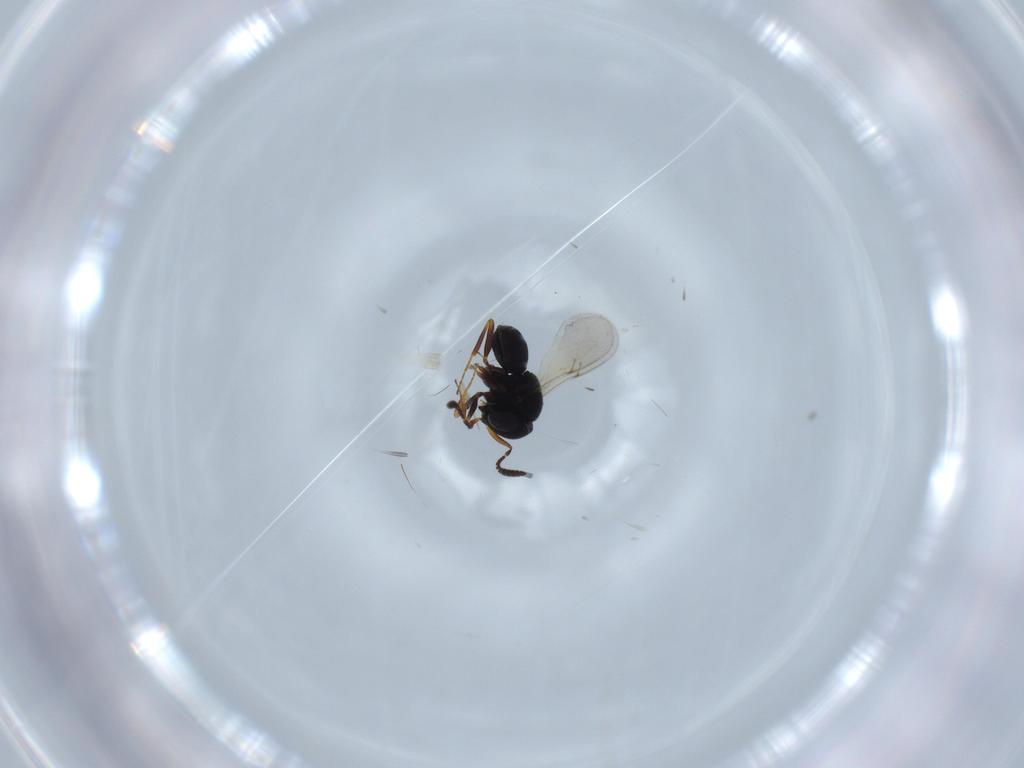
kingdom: Animalia
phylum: Arthropoda
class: Insecta
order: Hymenoptera
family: Scelionidae
